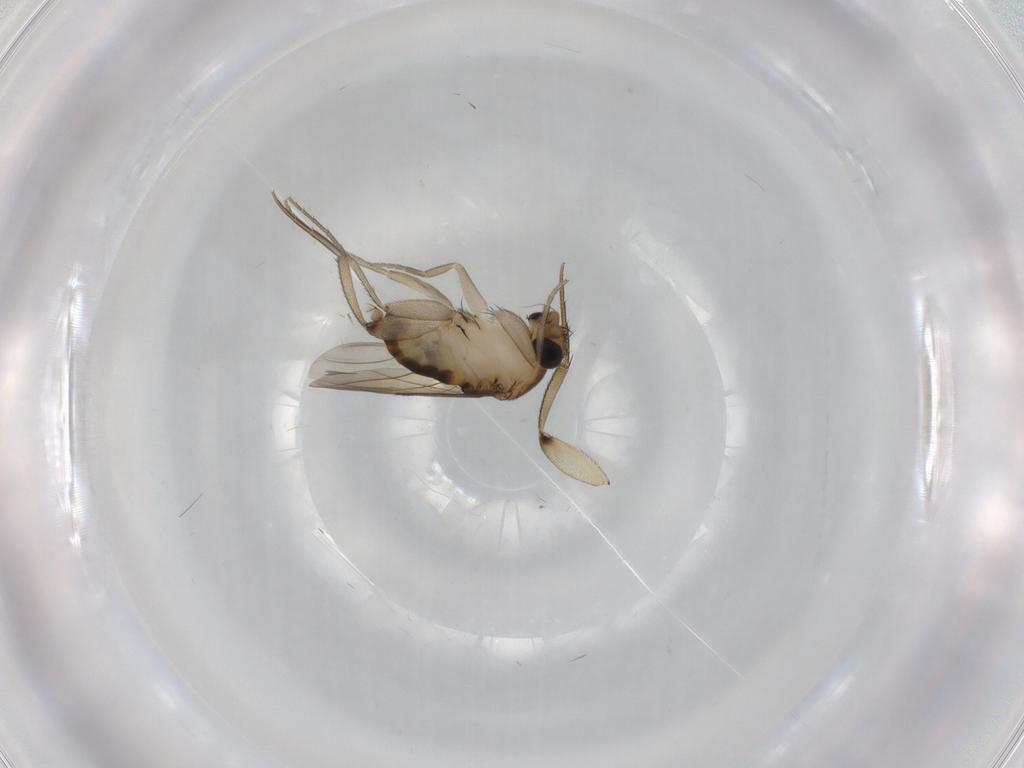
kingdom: Animalia
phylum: Arthropoda
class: Insecta
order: Diptera
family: Phoridae
